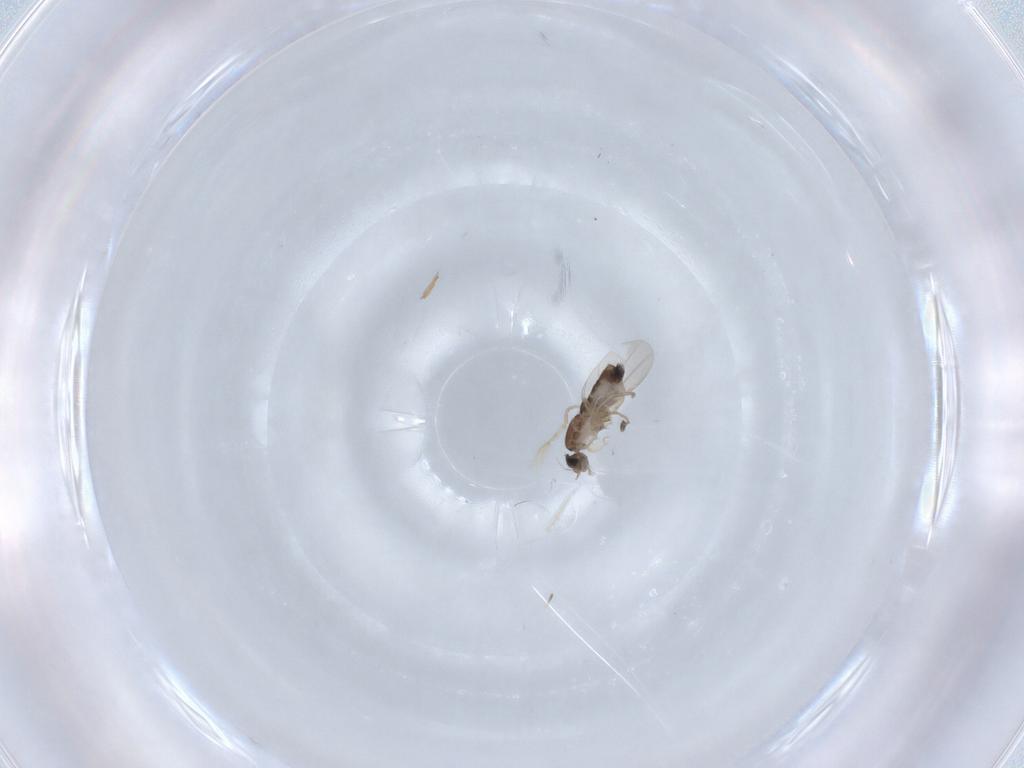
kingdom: Animalia
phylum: Arthropoda
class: Insecta
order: Diptera
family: Mycetophilidae
